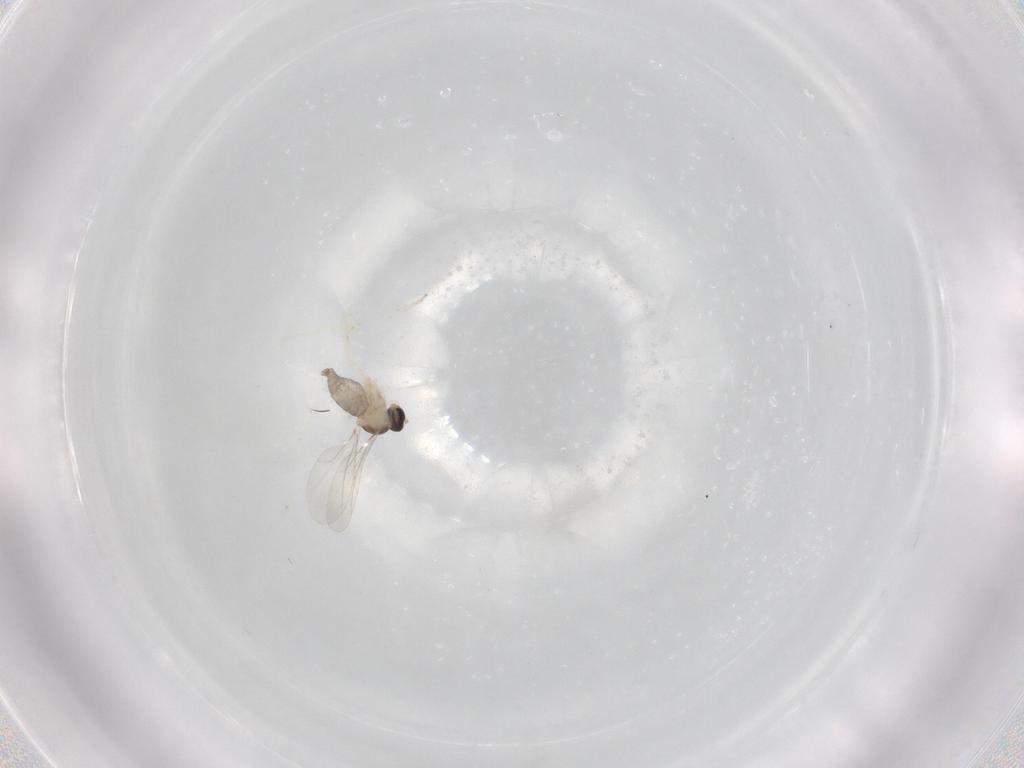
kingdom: Animalia
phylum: Arthropoda
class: Insecta
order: Diptera
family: Cecidomyiidae
